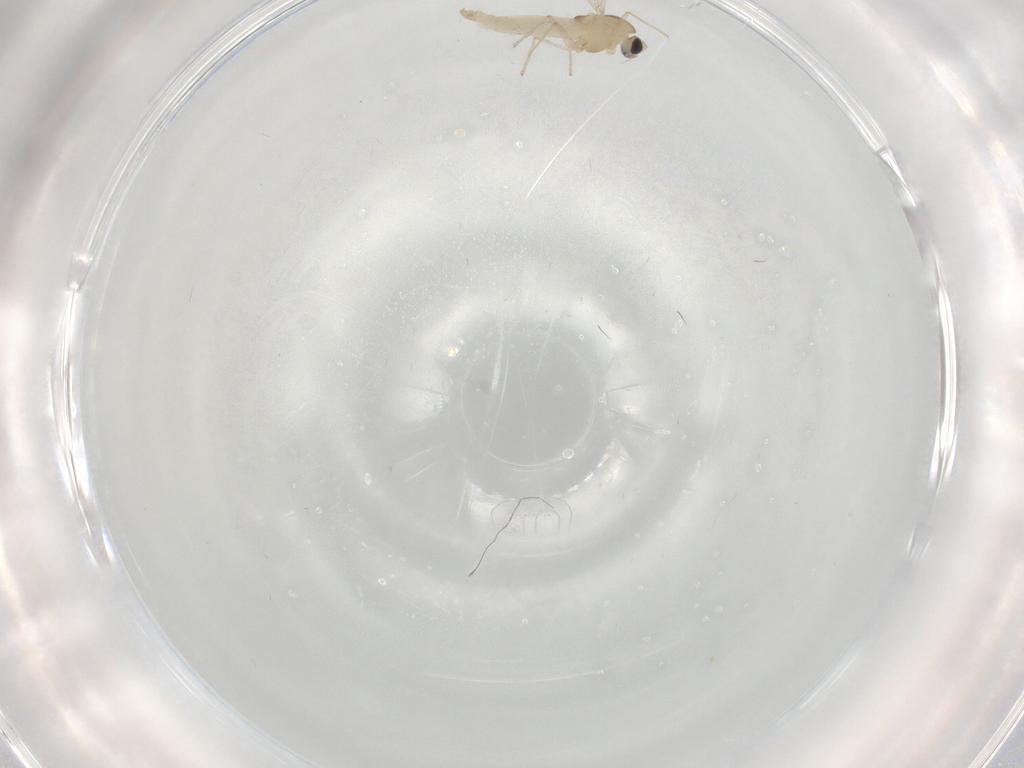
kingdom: Animalia
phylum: Arthropoda
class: Insecta
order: Diptera
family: Chironomidae
